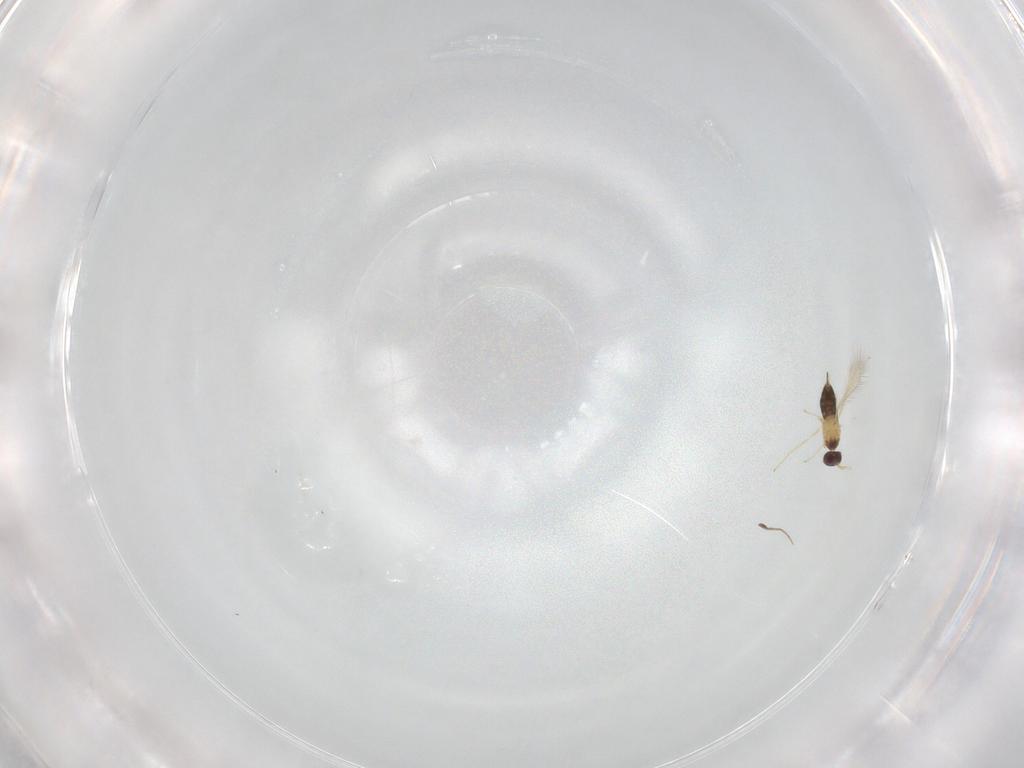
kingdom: Animalia
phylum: Arthropoda
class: Insecta
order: Hymenoptera
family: Mymaridae
